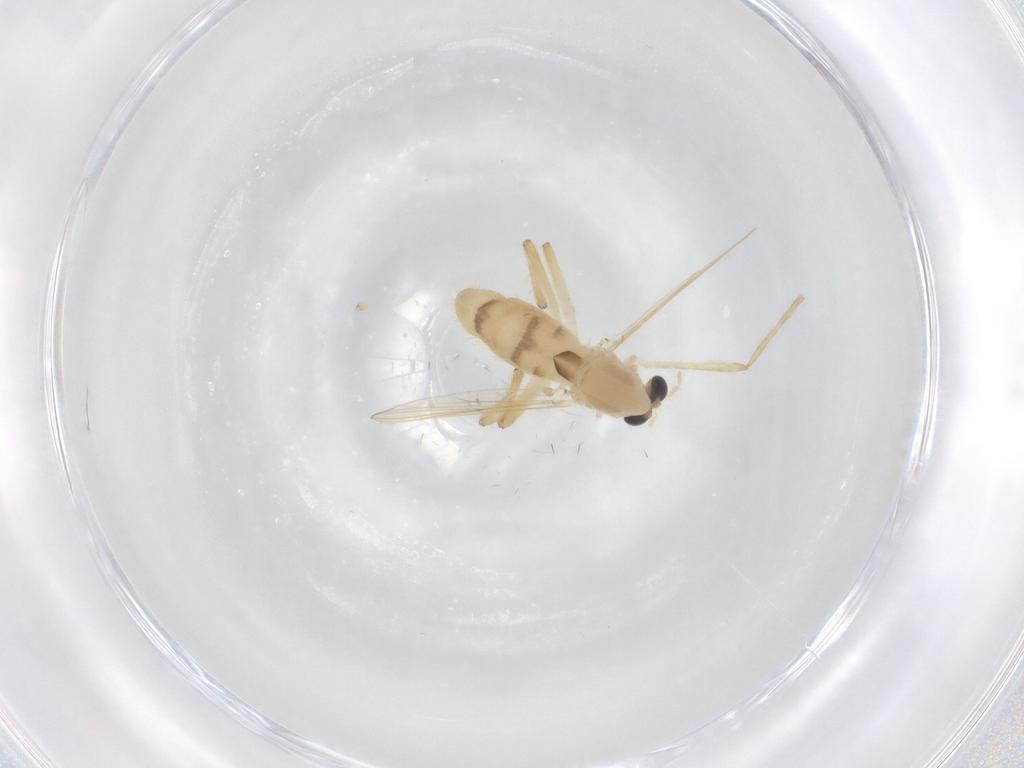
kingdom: Animalia
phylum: Arthropoda
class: Insecta
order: Diptera
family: Chironomidae
